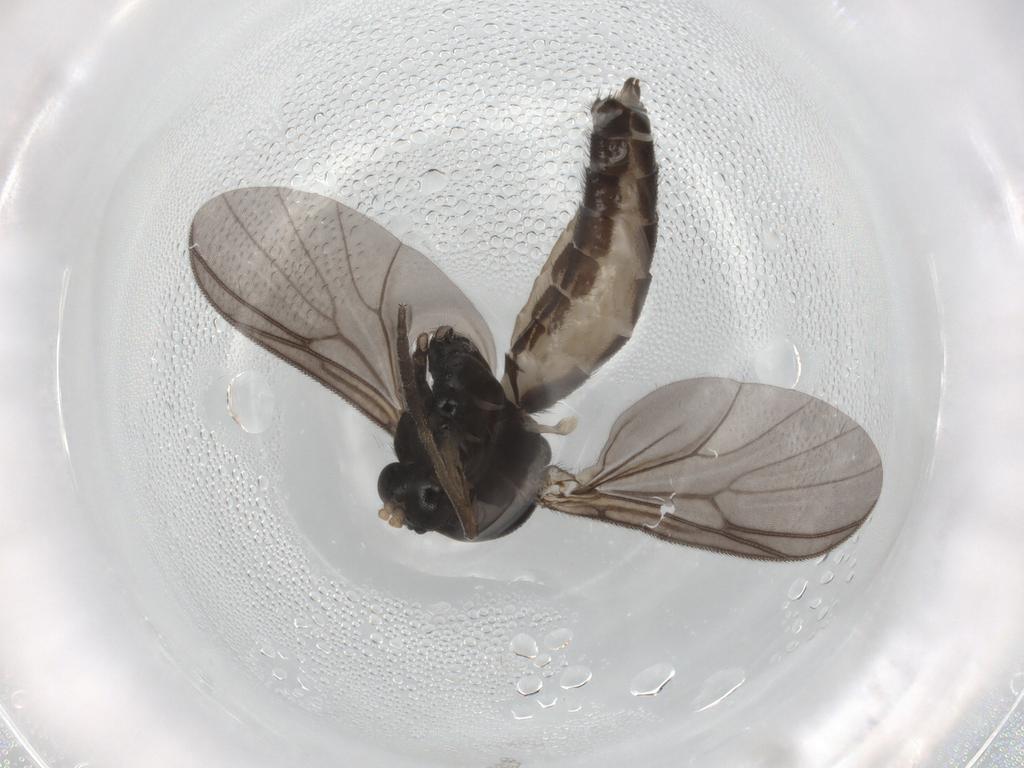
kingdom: Animalia
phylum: Arthropoda
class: Insecta
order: Diptera
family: Mycetophilidae
